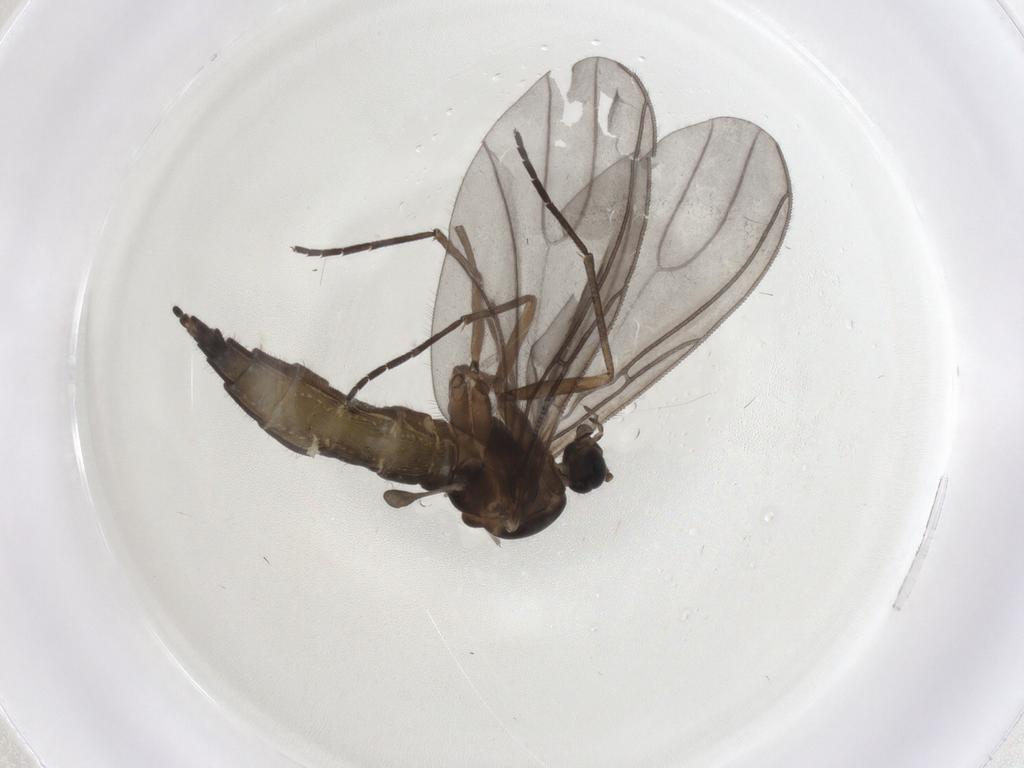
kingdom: Animalia
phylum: Arthropoda
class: Insecta
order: Diptera
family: Sciaridae
